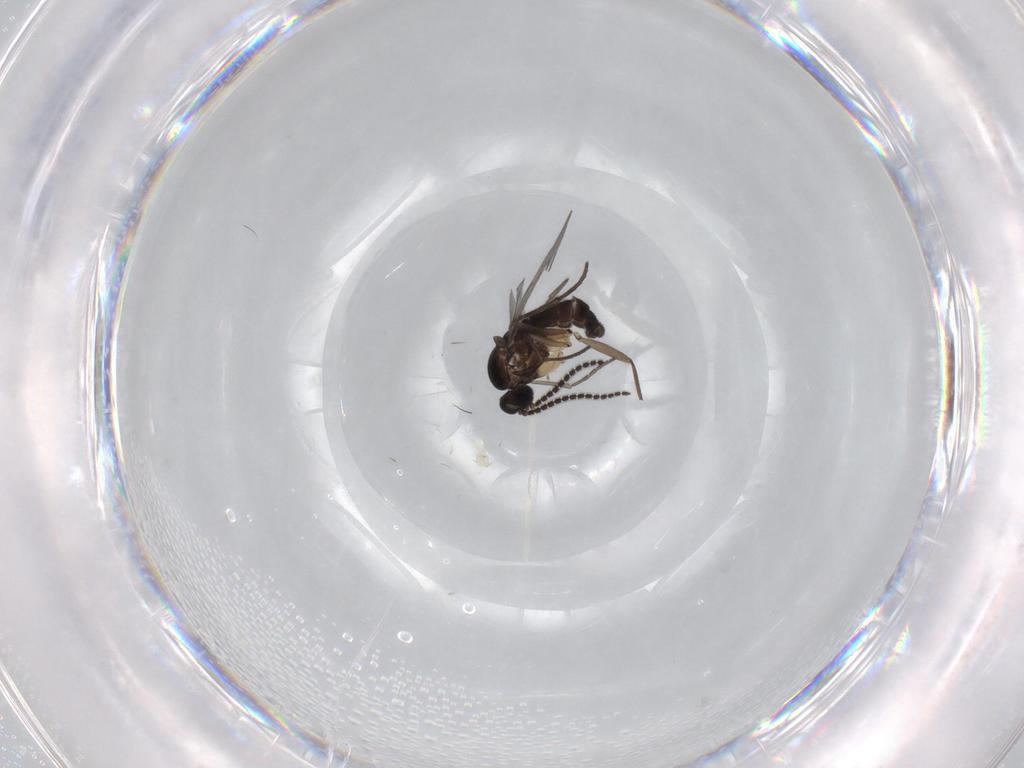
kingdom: Animalia
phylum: Arthropoda
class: Insecta
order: Diptera
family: Sciaridae
